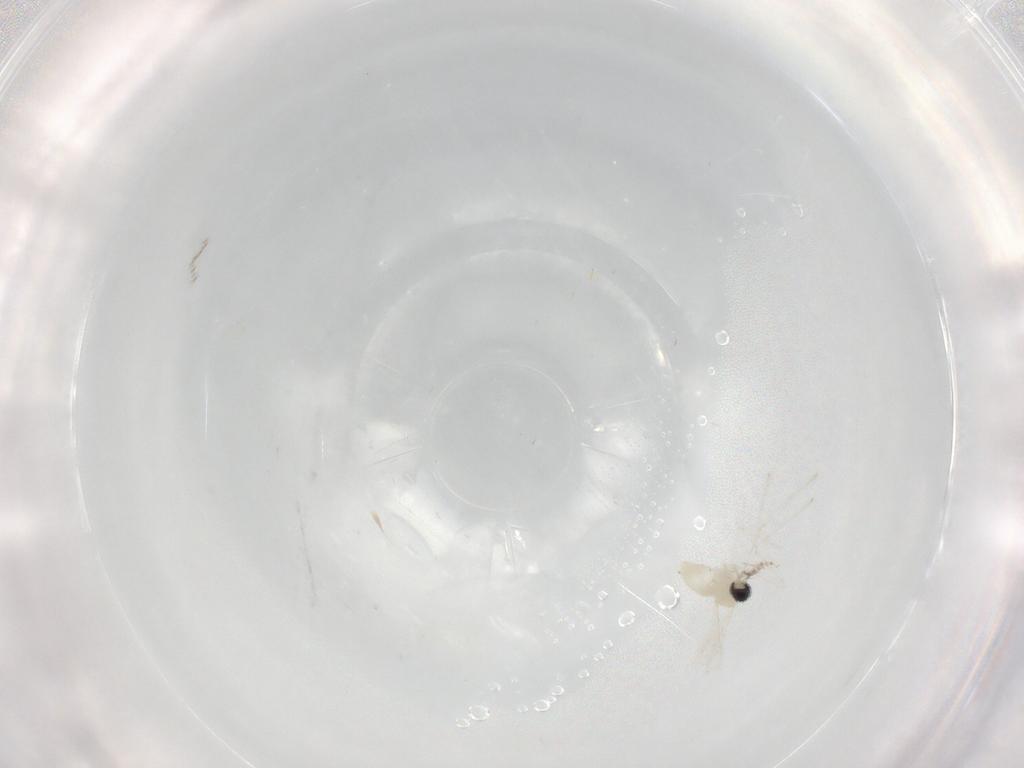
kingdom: Animalia
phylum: Arthropoda
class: Insecta
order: Diptera
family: Cecidomyiidae
